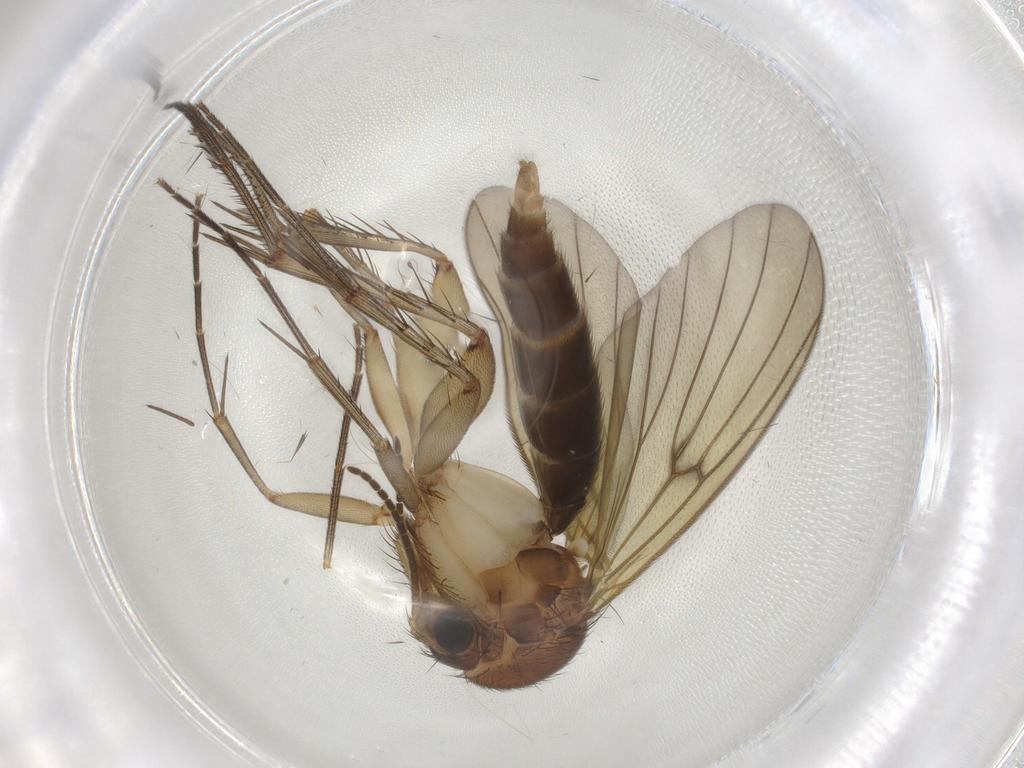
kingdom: Animalia
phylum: Arthropoda
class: Insecta
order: Diptera
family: Mycetophilidae
